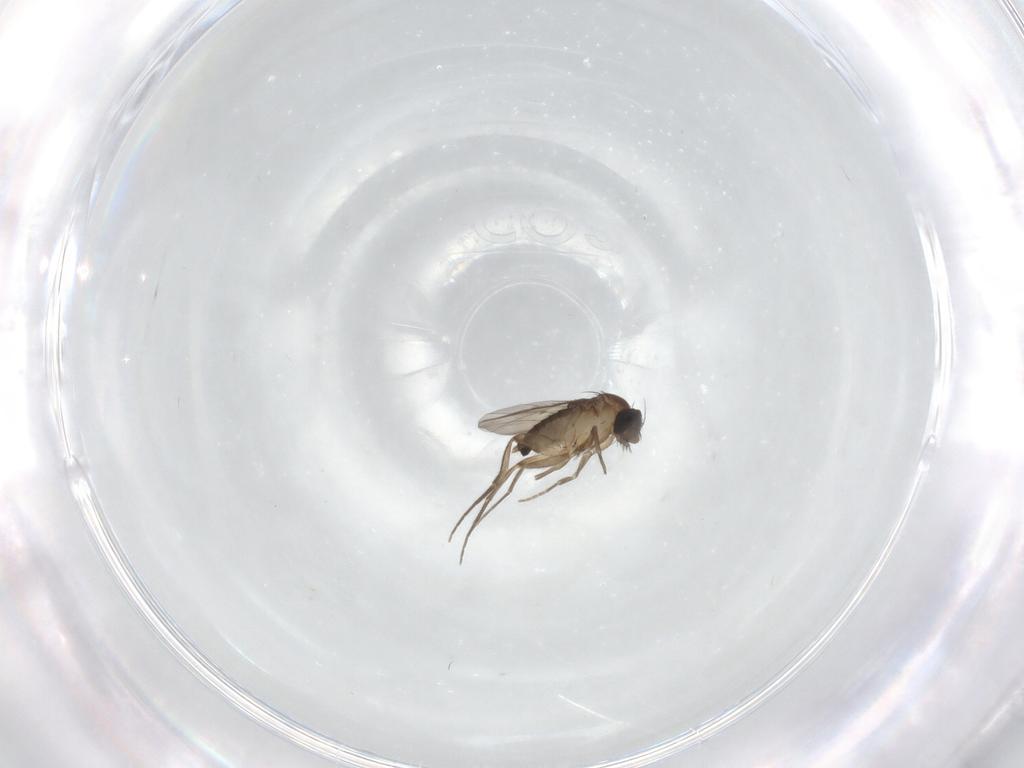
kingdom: Animalia
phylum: Arthropoda
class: Insecta
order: Diptera
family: Phoridae
